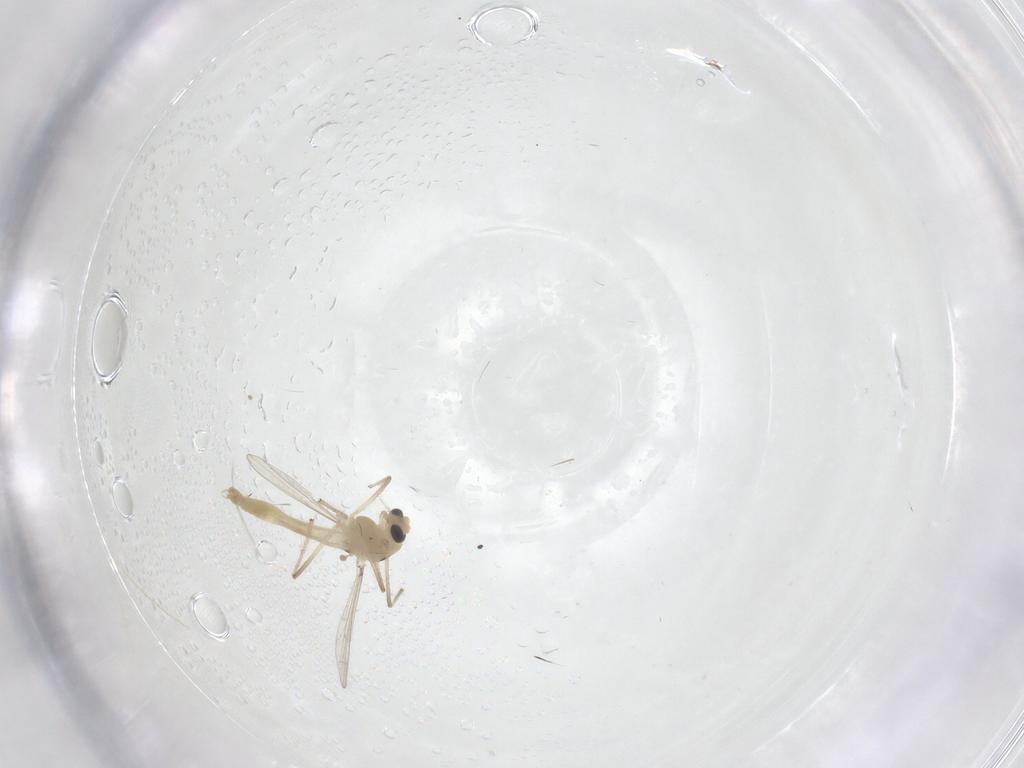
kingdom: Animalia
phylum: Arthropoda
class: Insecta
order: Diptera
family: Chironomidae
